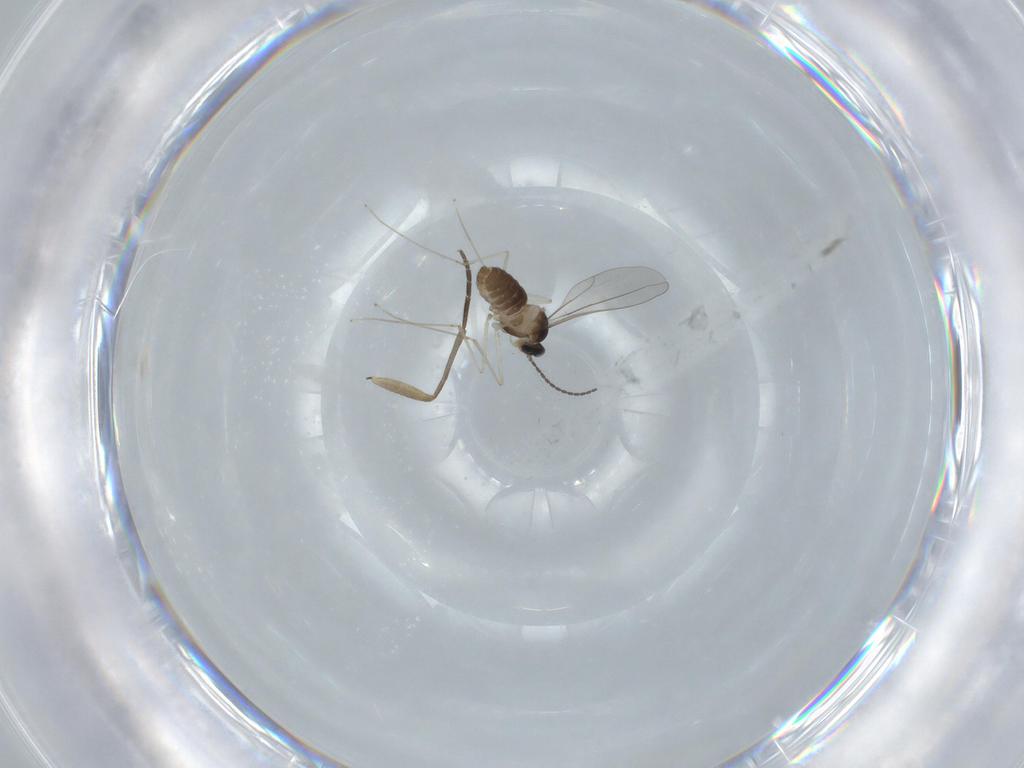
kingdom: Animalia
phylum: Arthropoda
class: Insecta
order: Diptera
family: Cecidomyiidae
